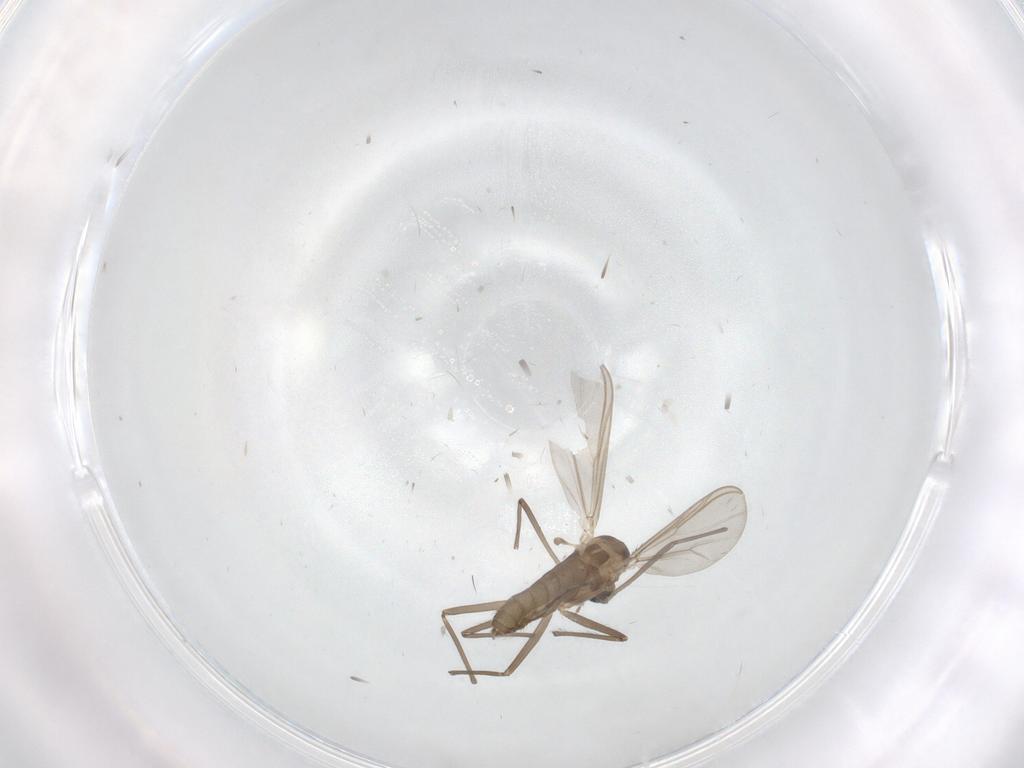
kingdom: Animalia
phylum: Arthropoda
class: Insecta
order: Diptera
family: Chironomidae
